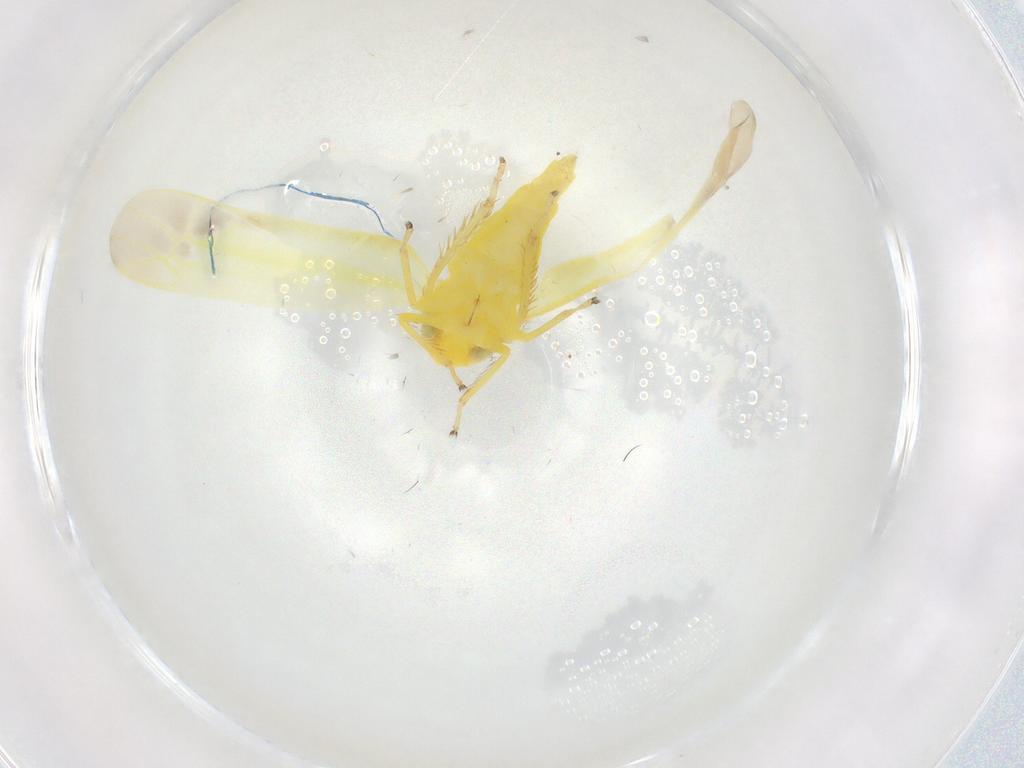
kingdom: Animalia
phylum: Arthropoda
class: Insecta
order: Hemiptera
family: Cicadellidae
